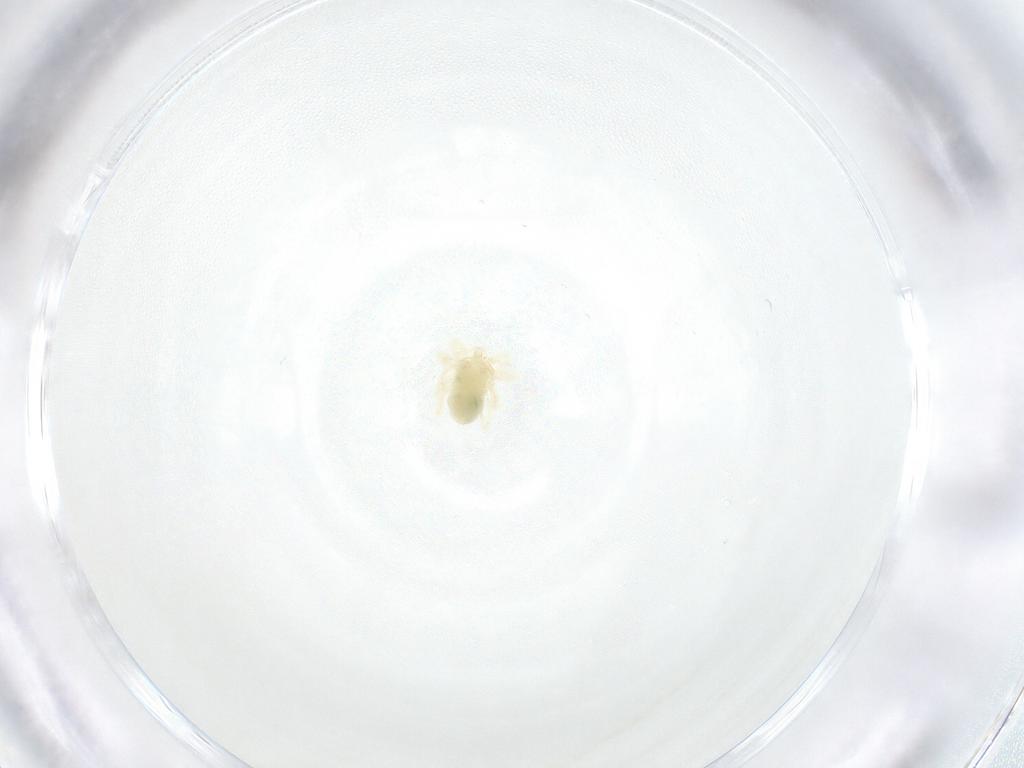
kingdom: Animalia
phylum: Arthropoda
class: Arachnida
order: Trombidiformes
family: Anystidae
